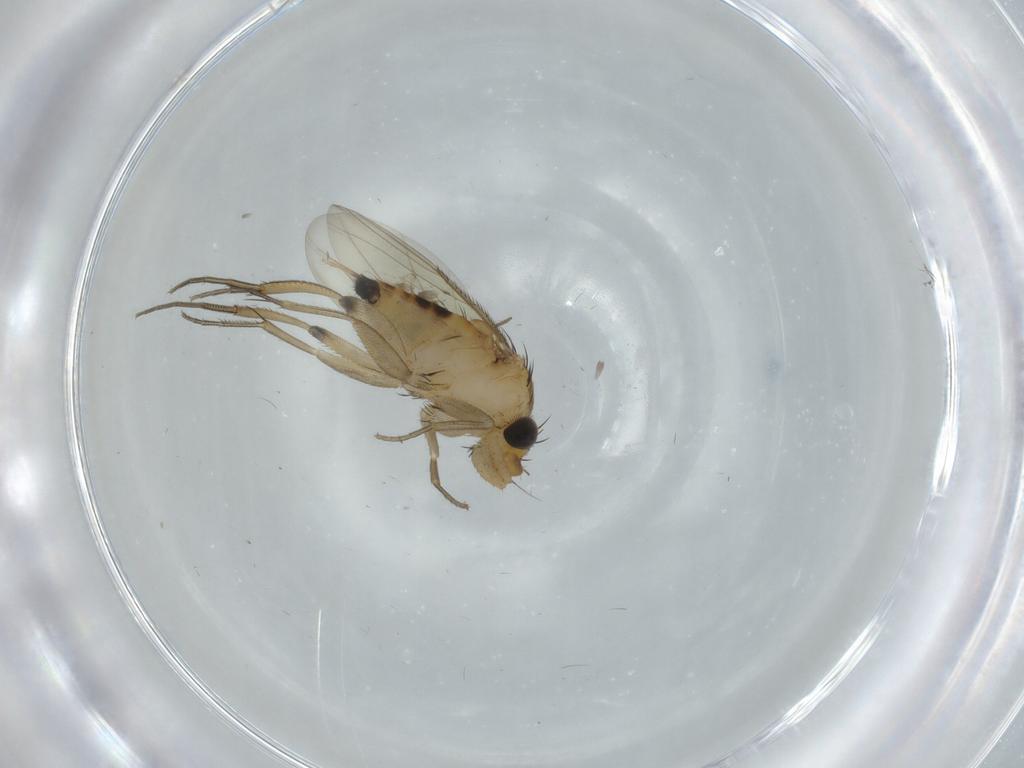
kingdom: Animalia
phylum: Arthropoda
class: Insecta
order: Diptera
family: Phoridae
